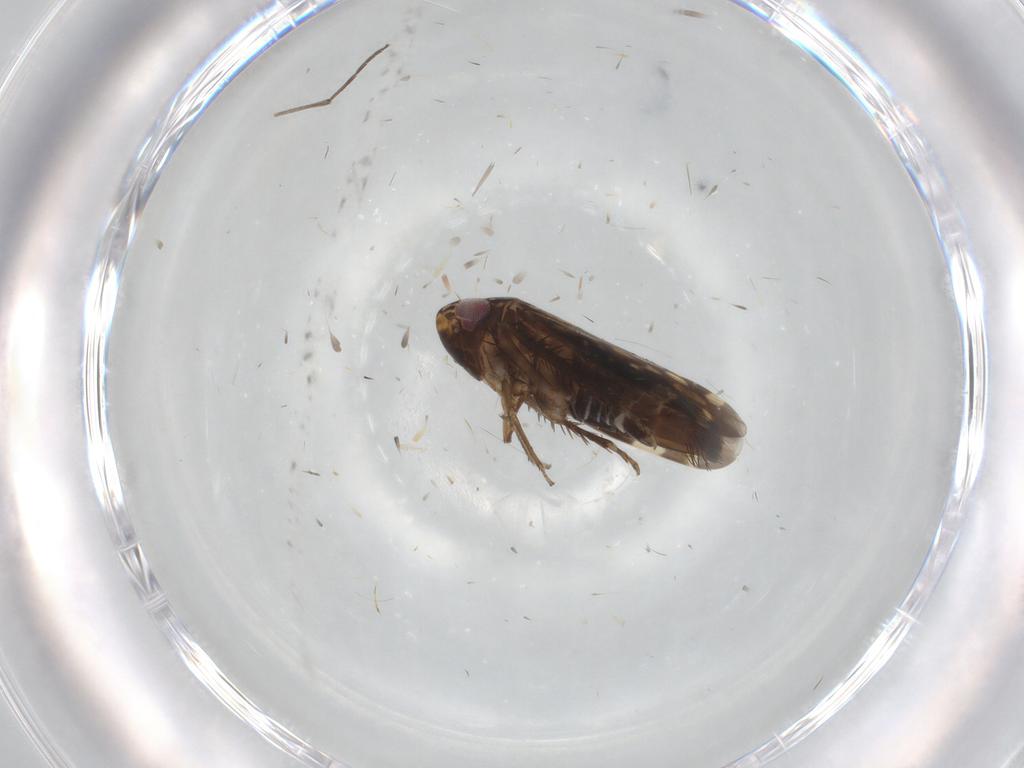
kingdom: Animalia
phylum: Arthropoda
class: Insecta
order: Hemiptera
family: Cicadellidae
